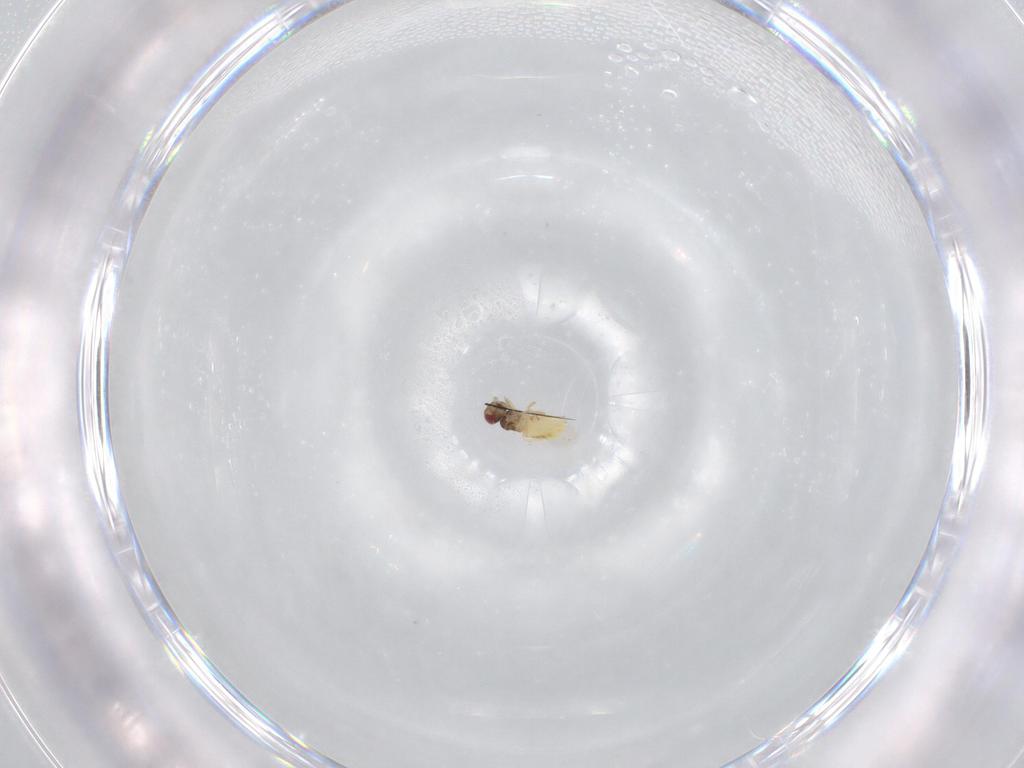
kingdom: Animalia
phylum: Arthropoda
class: Insecta
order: Hymenoptera
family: Trichogrammatidae
